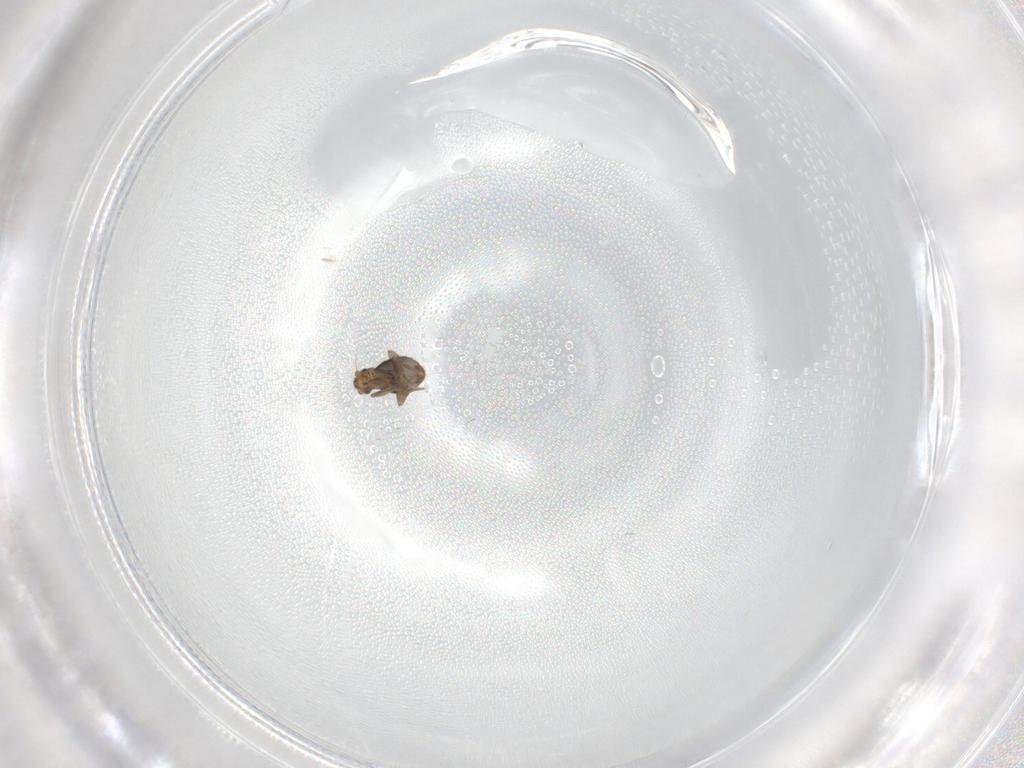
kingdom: Animalia
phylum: Arthropoda
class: Insecta
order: Diptera
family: Phoridae
